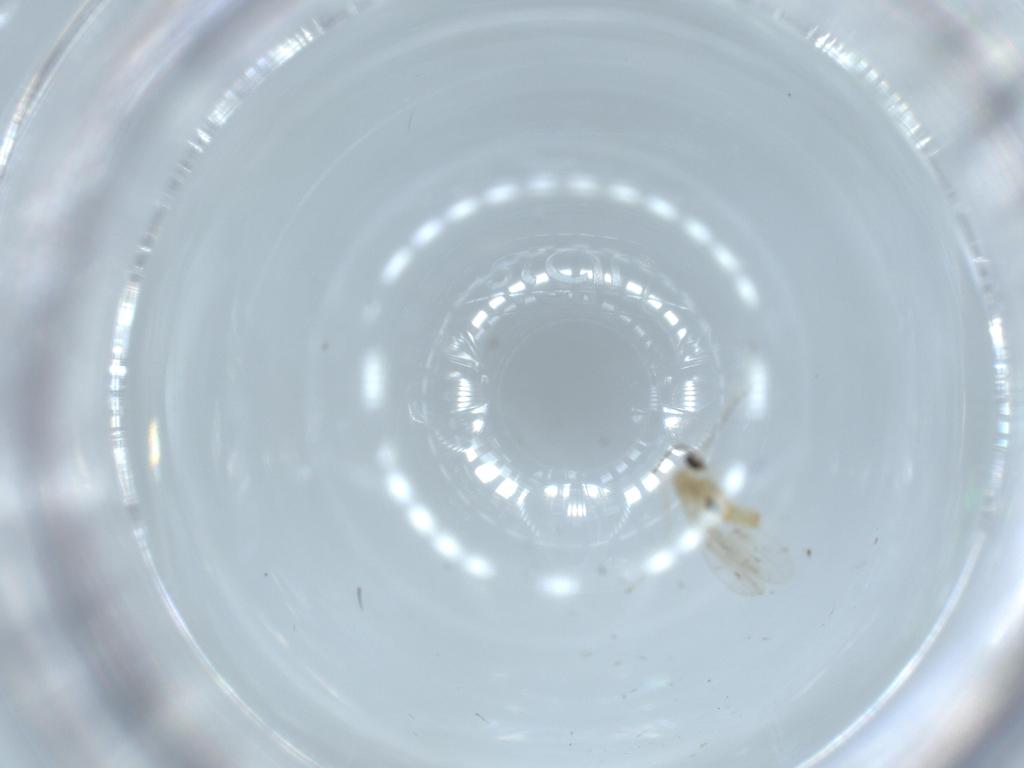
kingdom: Animalia
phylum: Arthropoda
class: Insecta
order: Diptera
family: Cecidomyiidae
